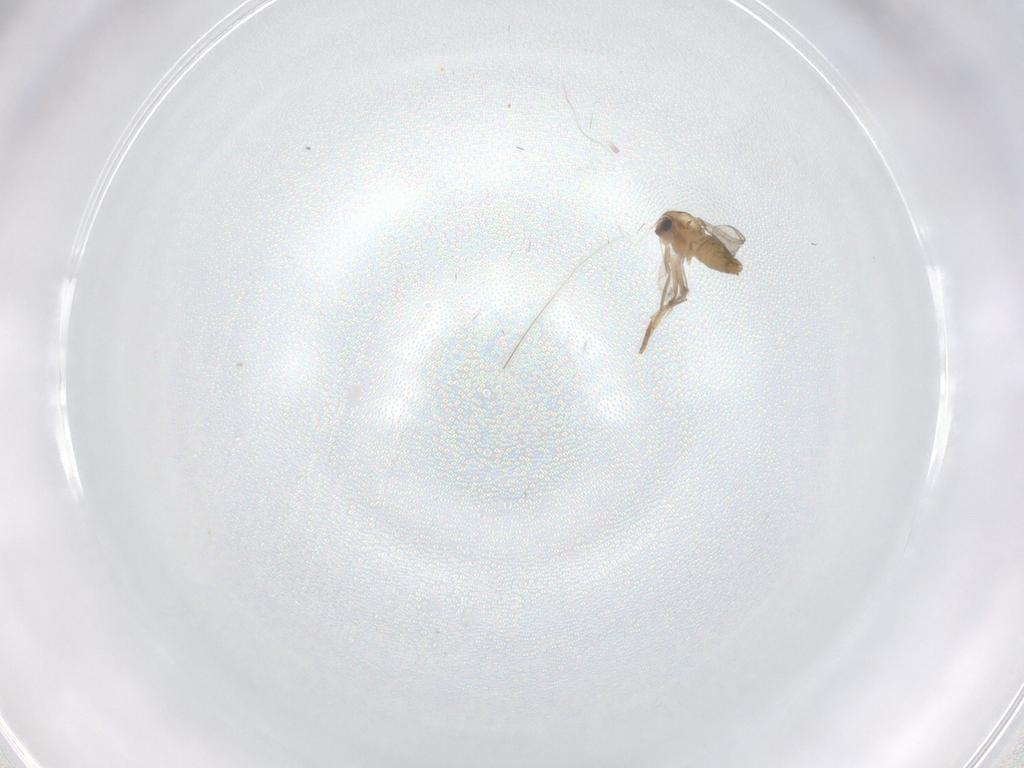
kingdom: Animalia
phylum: Arthropoda
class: Insecta
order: Diptera
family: Chironomidae
